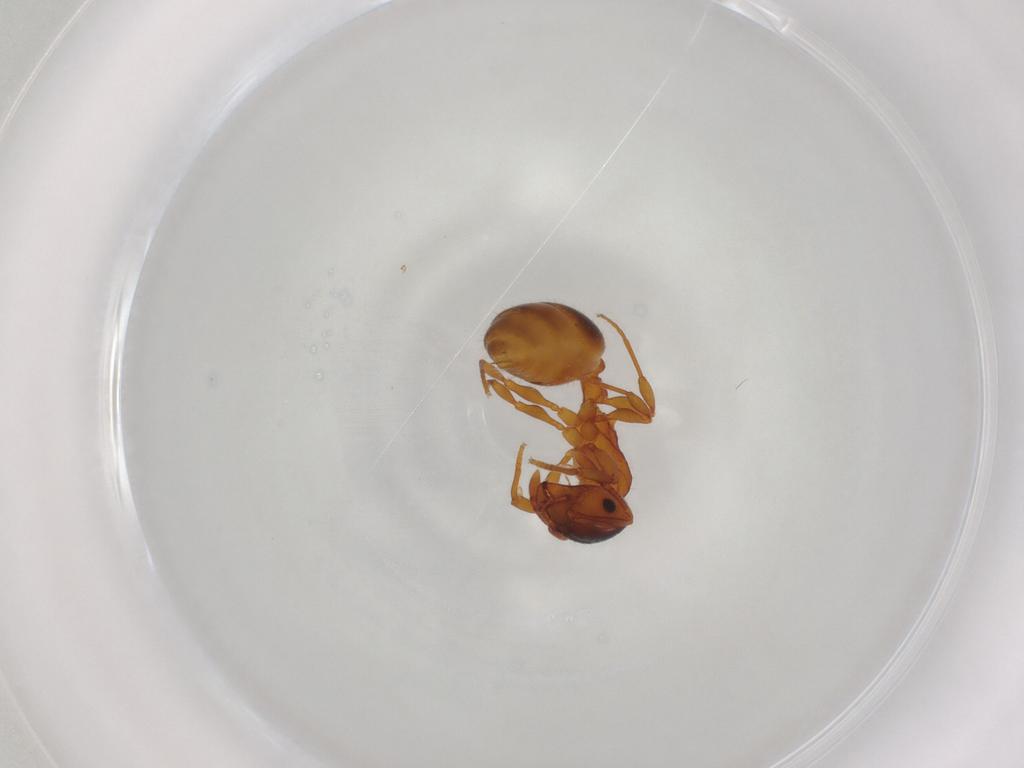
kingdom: Animalia
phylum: Arthropoda
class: Insecta
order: Hymenoptera
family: Formicidae
